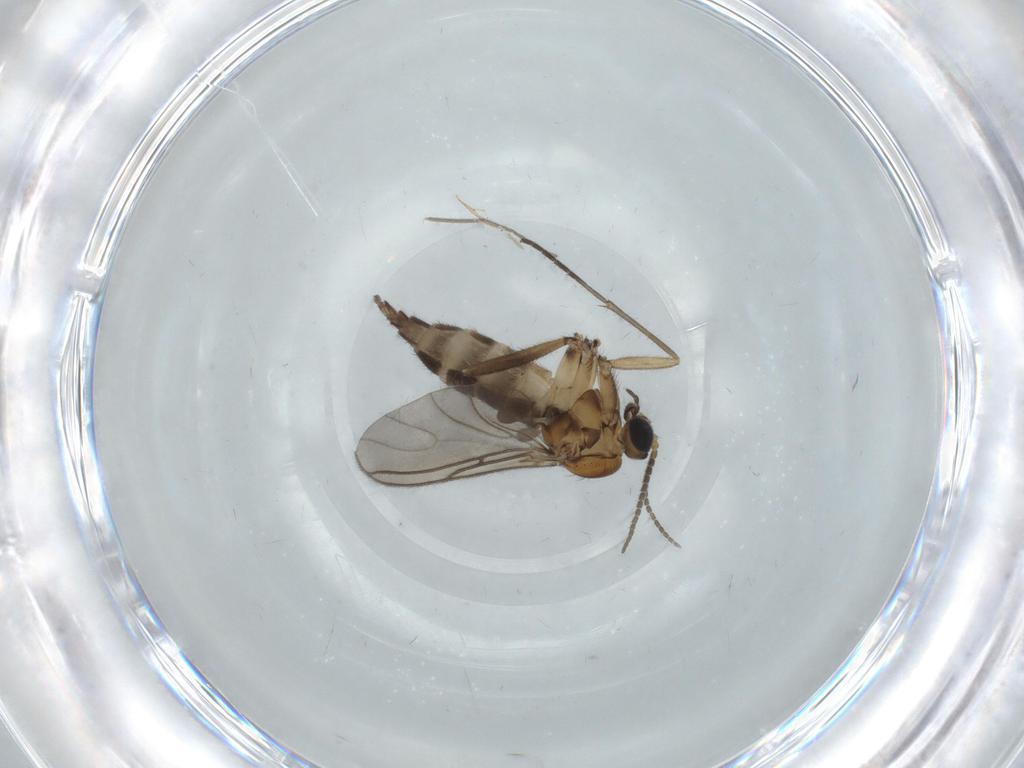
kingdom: Animalia
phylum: Arthropoda
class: Insecta
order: Diptera
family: Sciaridae
